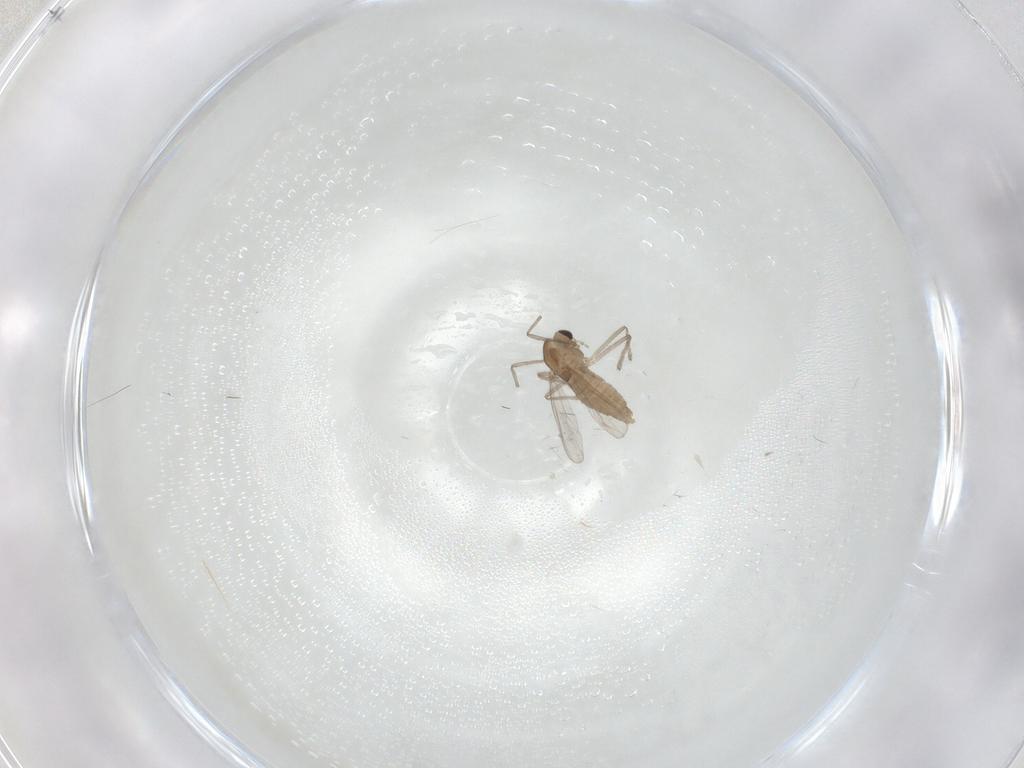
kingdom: Animalia
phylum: Arthropoda
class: Insecta
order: Diptera
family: Chironomidae
